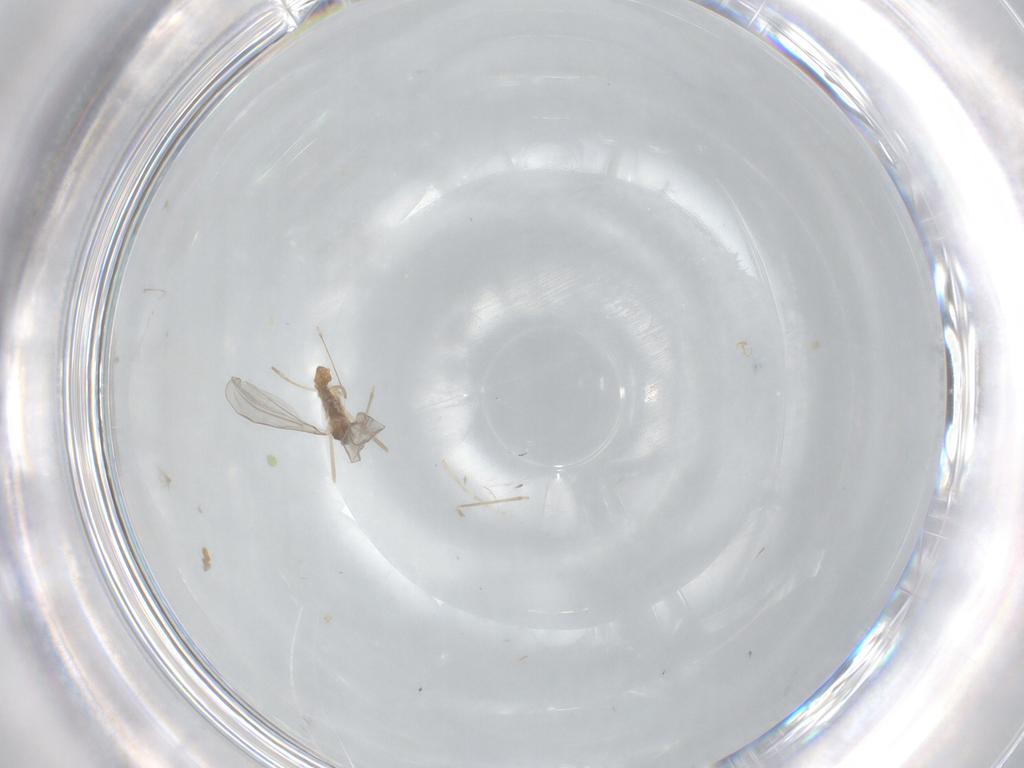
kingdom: Animalia
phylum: Arthropoda
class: Insecta
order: Diptera
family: Cecidomyiidae
